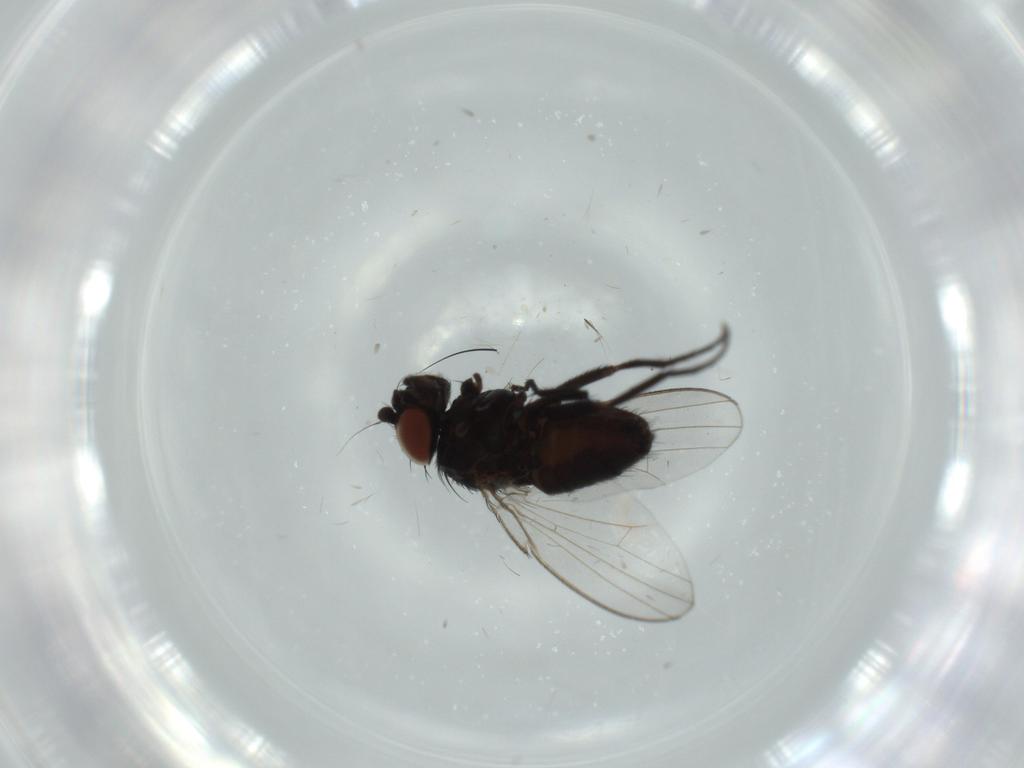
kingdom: Animalia
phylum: Arthropoda
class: Insecta
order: Diptera
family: Milichiidae
